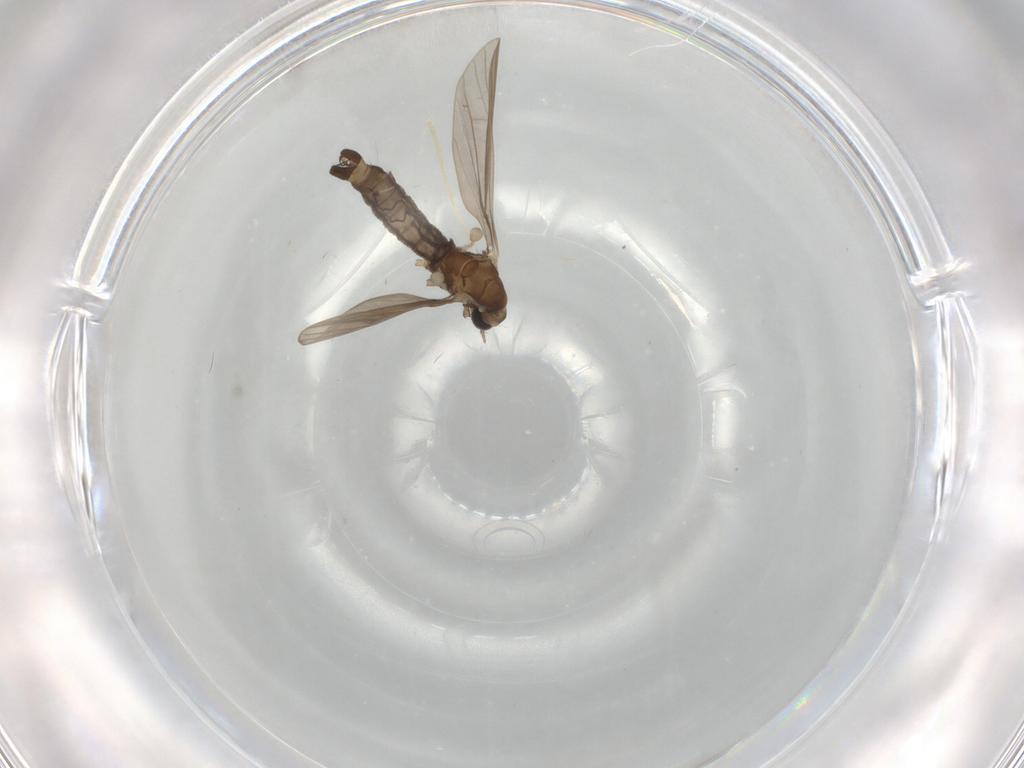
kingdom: Animalia
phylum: Arthropoda
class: Insecta
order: Diptera
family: Limoniidae
